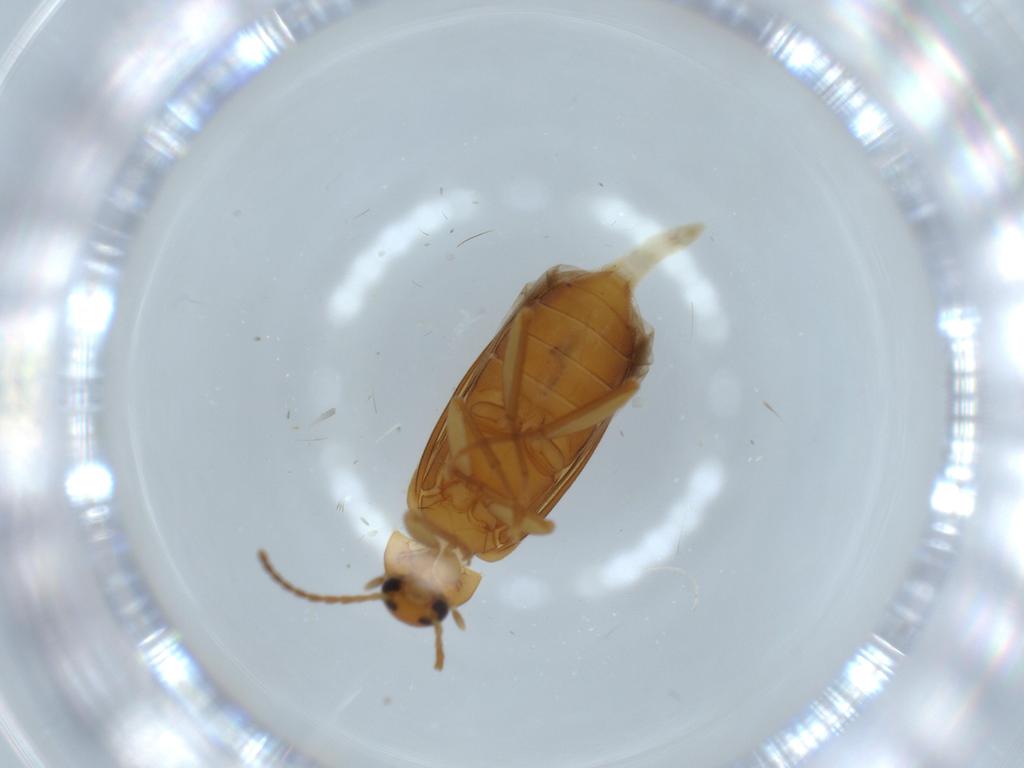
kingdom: Animalia
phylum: Arthropoda
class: Insecta
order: Coleoptera
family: Scraptiidae
